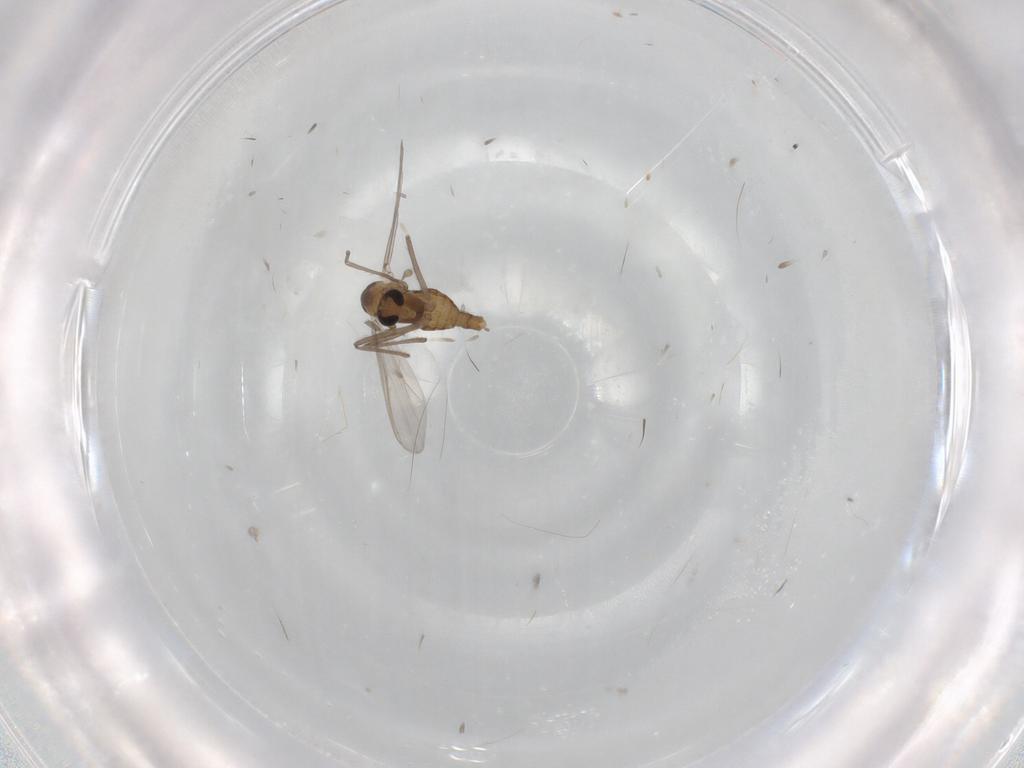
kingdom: Animalia
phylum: Arthropoda
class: Insecta
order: Diptera
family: Chironomidae
